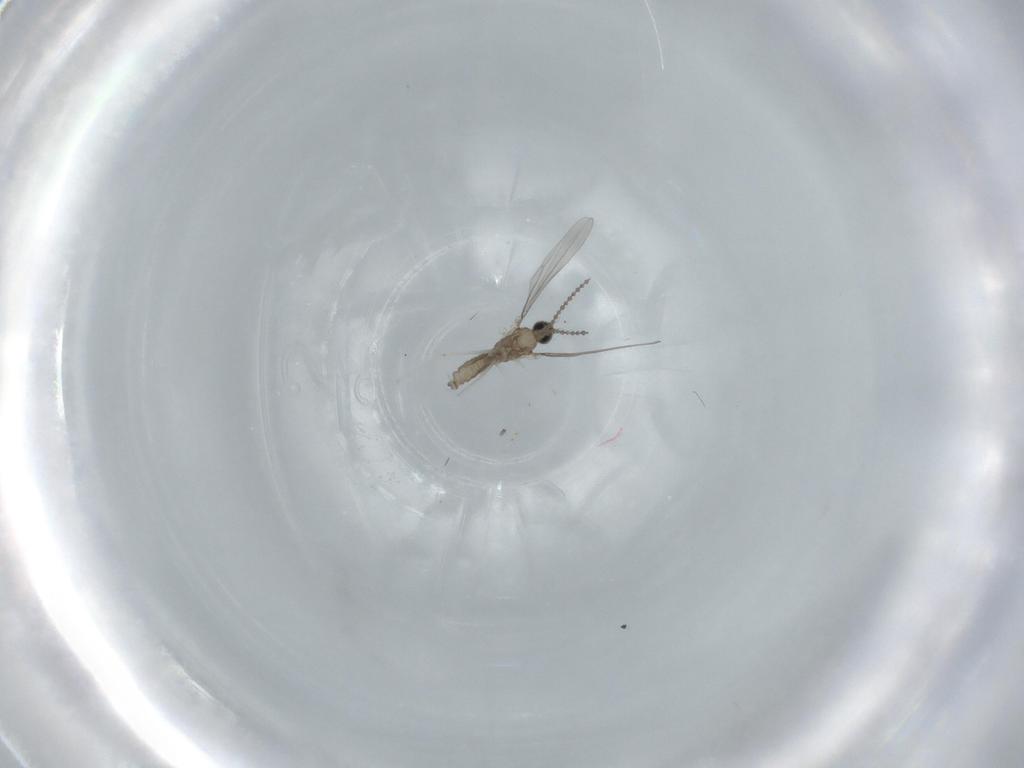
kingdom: Animalia
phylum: Arthropoda
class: Insecta
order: Diptera
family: Cecidomyiidae
